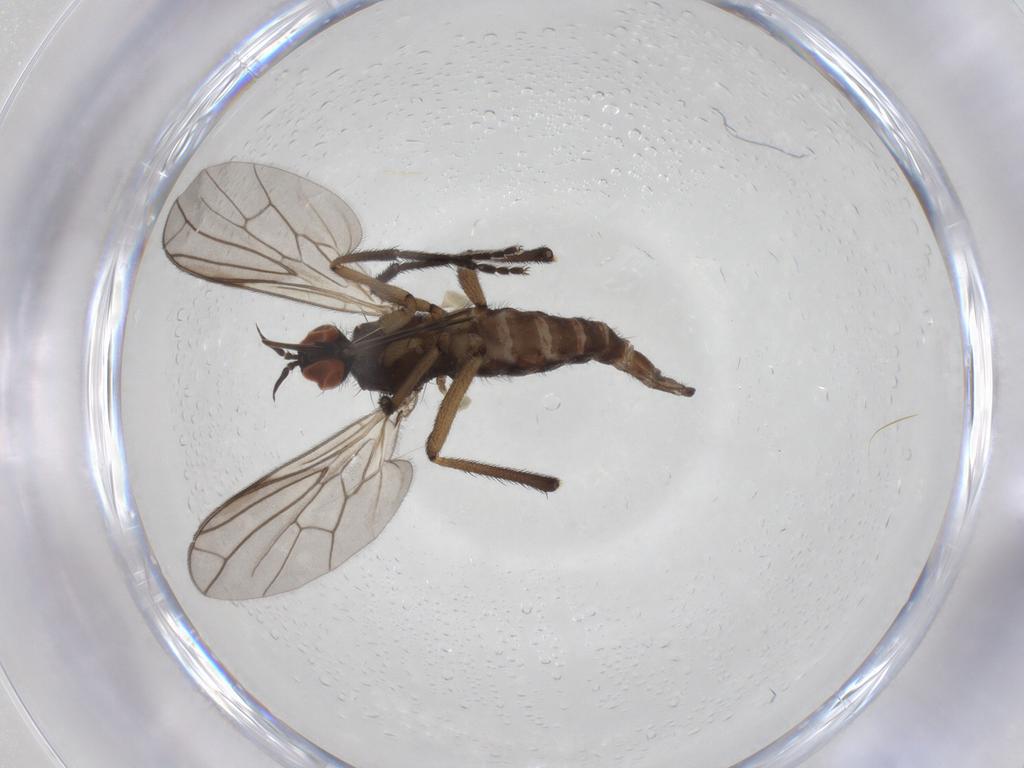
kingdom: Animalia
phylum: Arthropoda
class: Insecta
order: Diptera
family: Empididae
